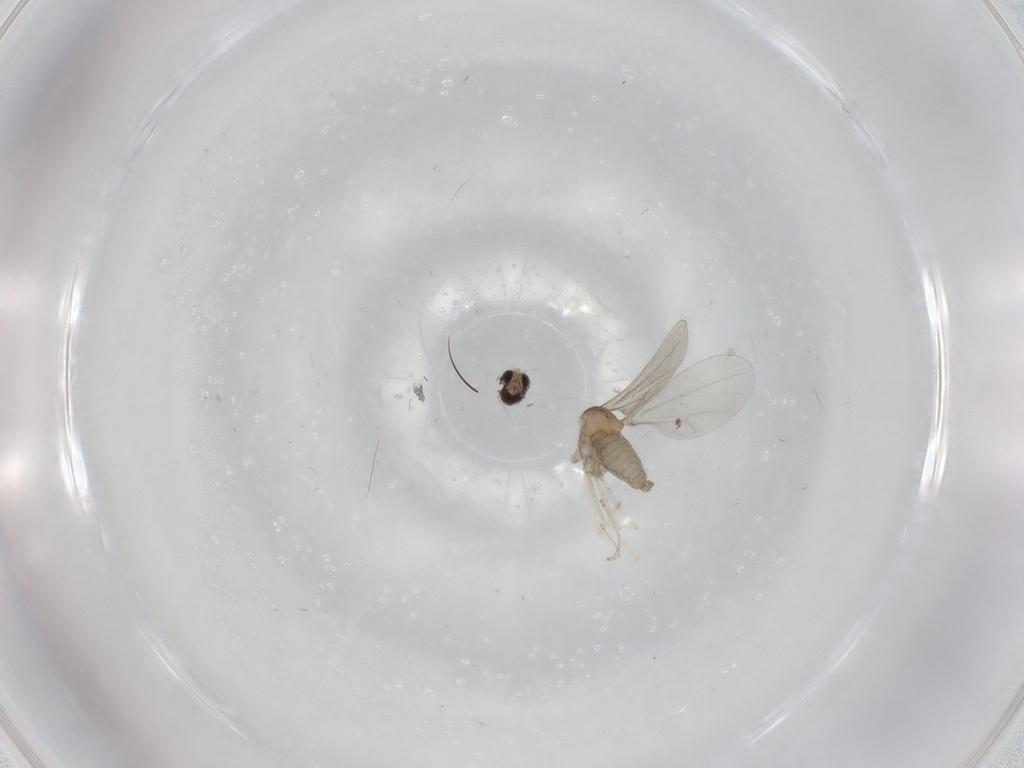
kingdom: Animalia
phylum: Arthropoda
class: Insecta
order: Diptera
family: Cecidomyiidae
